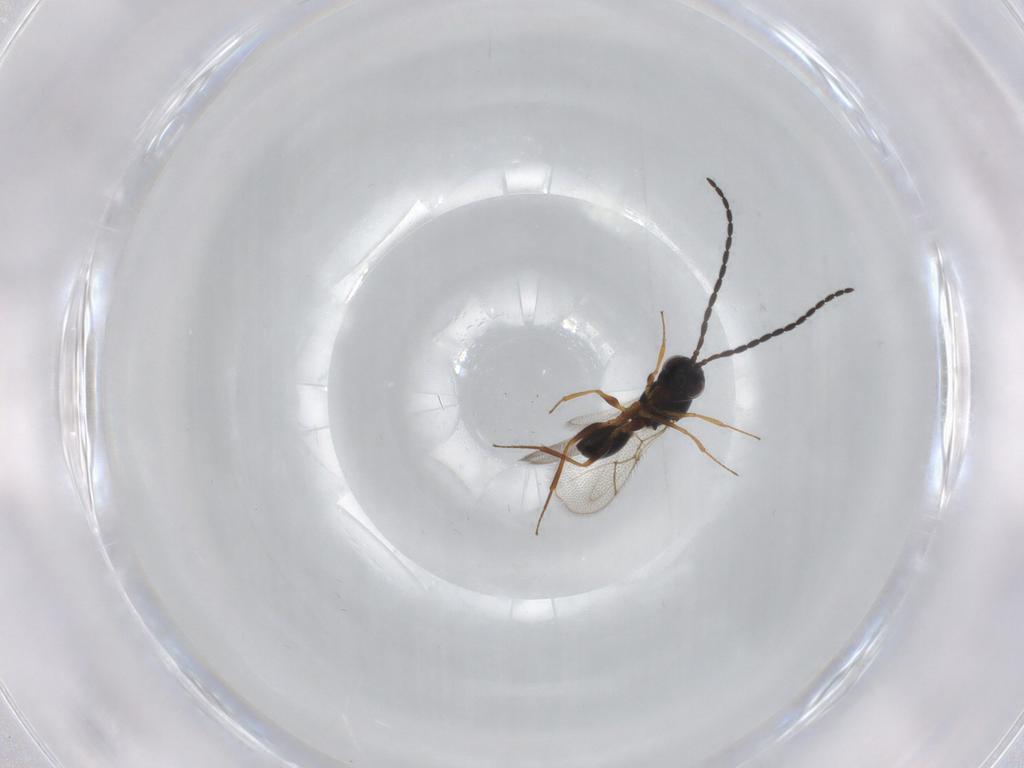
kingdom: Animalia
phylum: Arthropoda
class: Insecta
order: Hymenoptera
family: Figitidae
